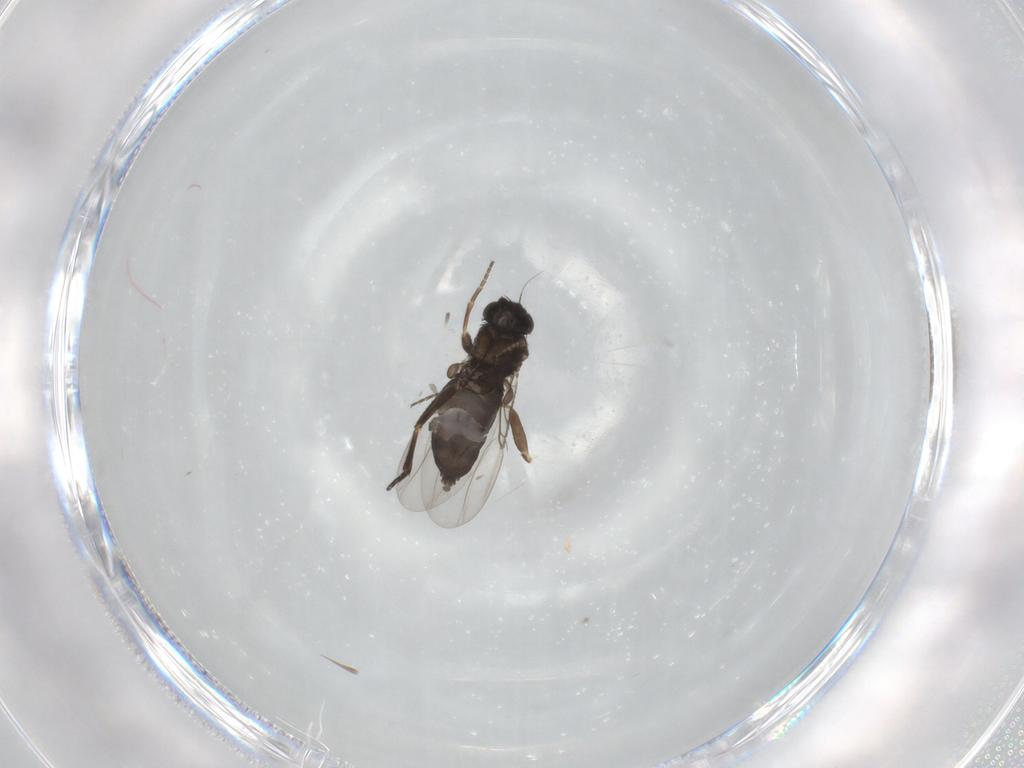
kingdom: Animalia
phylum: Arthropoda
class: Insecta
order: Diptera
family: Phoridae
